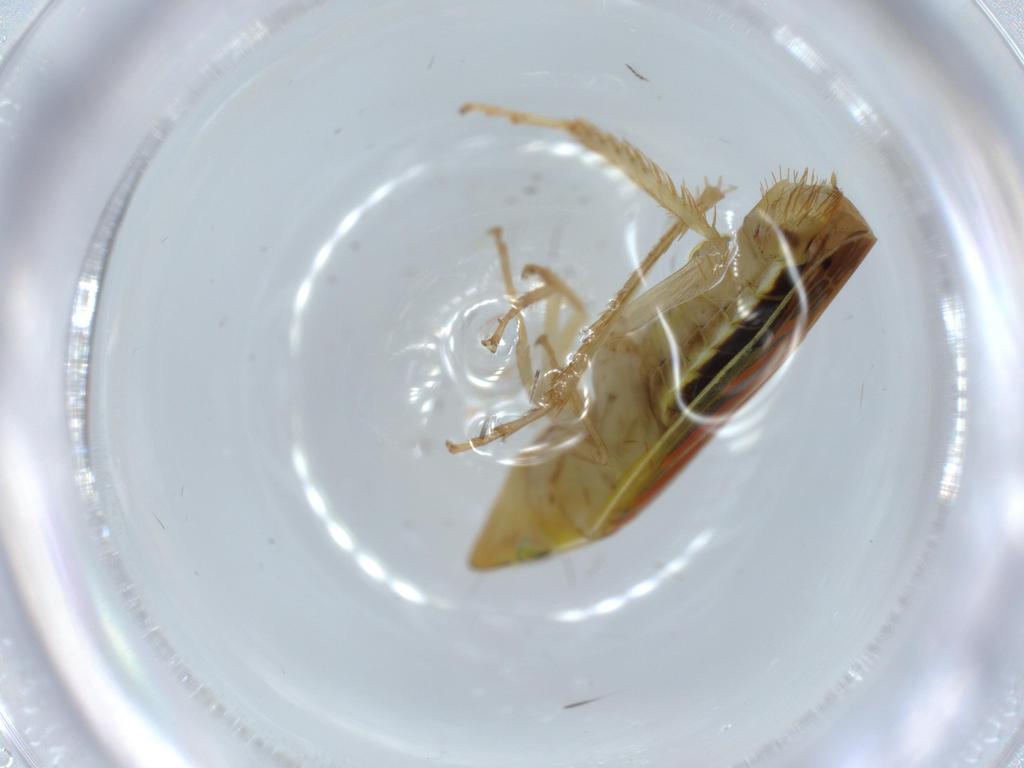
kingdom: Animalia
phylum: Arthropoda
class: Insecta
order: Hemiptera
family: Cicadellidae
